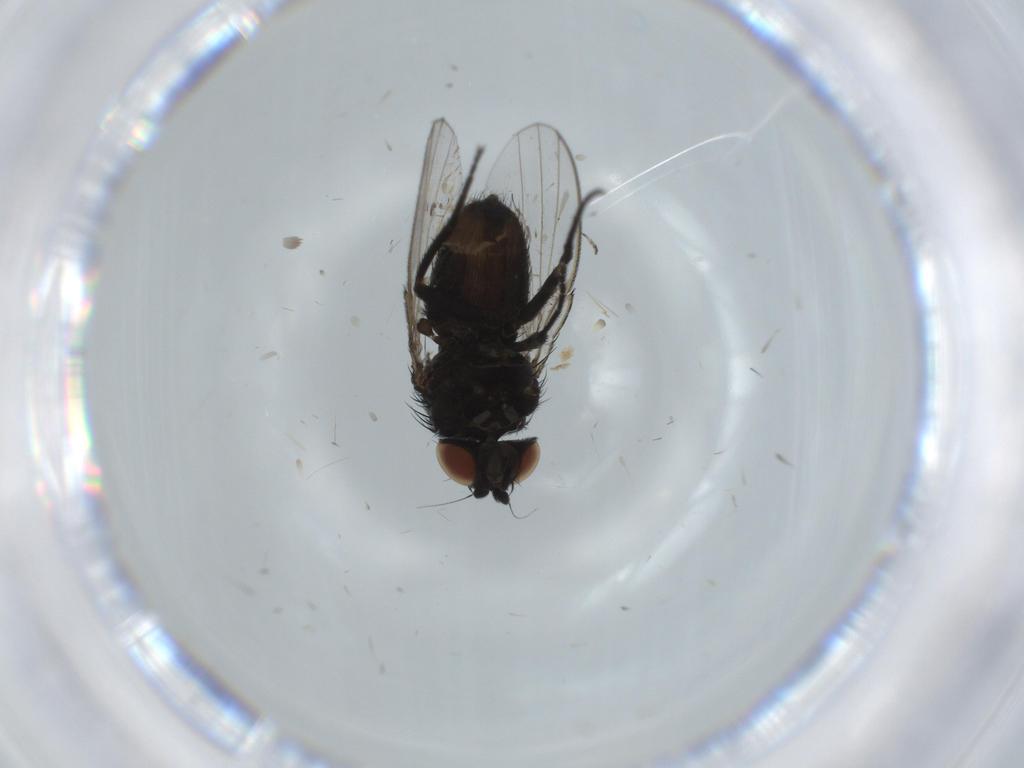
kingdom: Animalia
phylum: Arthropoda
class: Insecta
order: Diptera
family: Milichiidae
